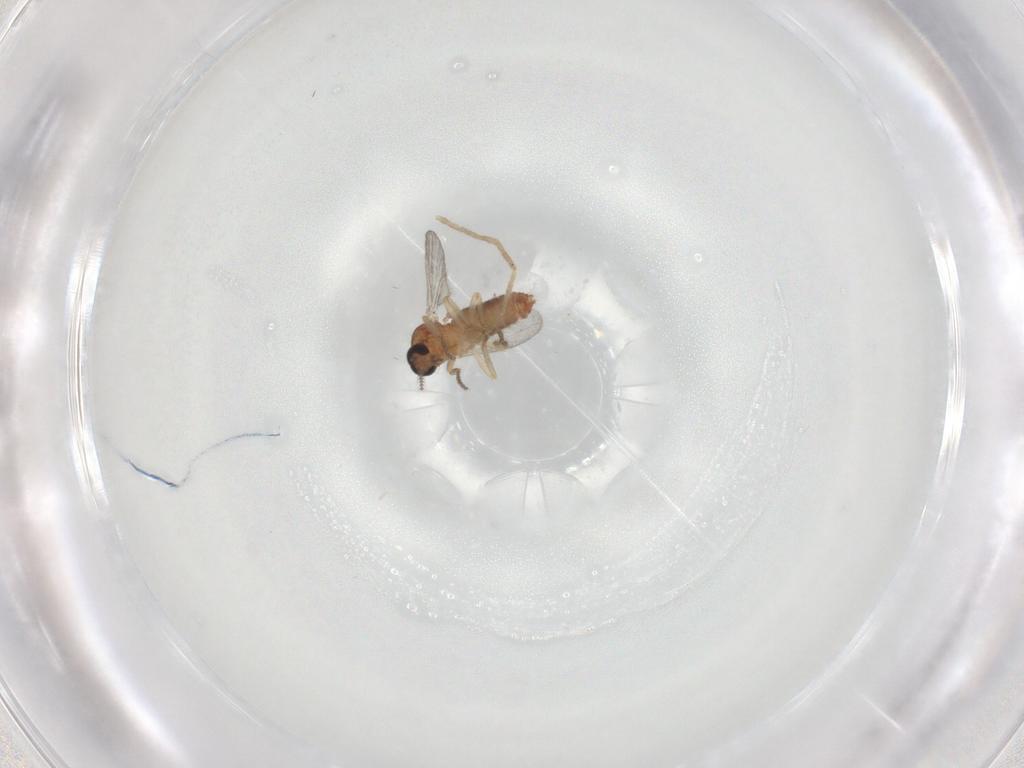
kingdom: Animalia
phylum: Arthropoda
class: Insecta
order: Diptera
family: Ceratopogonidae
